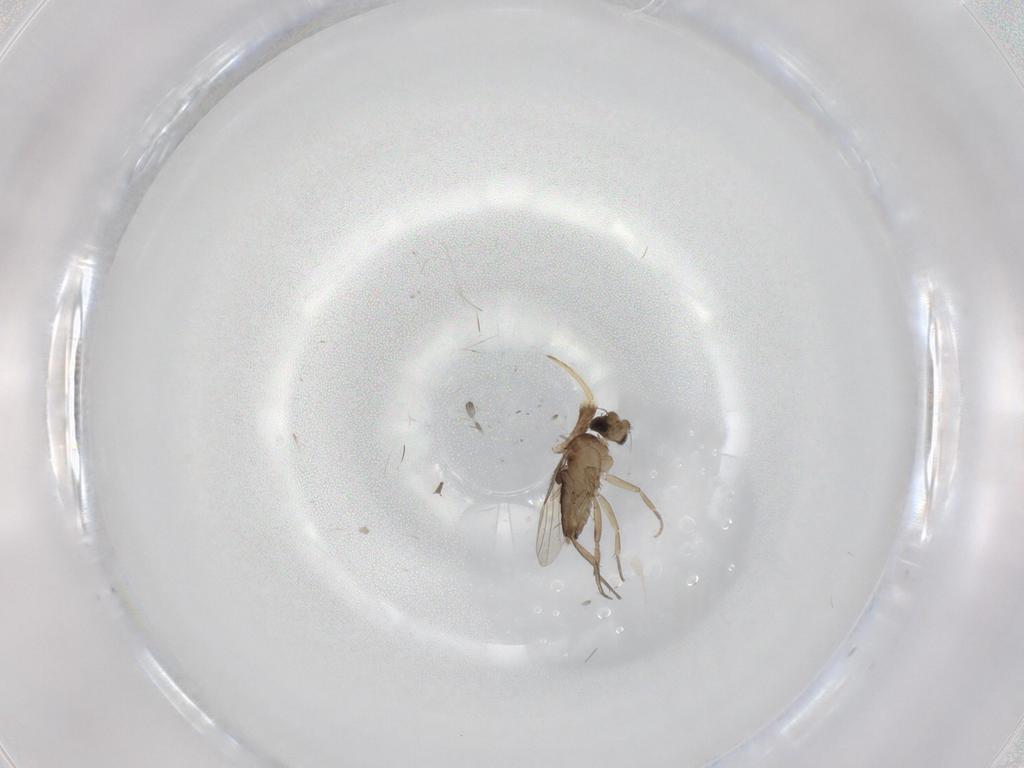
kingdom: Animalia
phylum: Arthropoda
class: Insecta
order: Diptera
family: Phoridae
